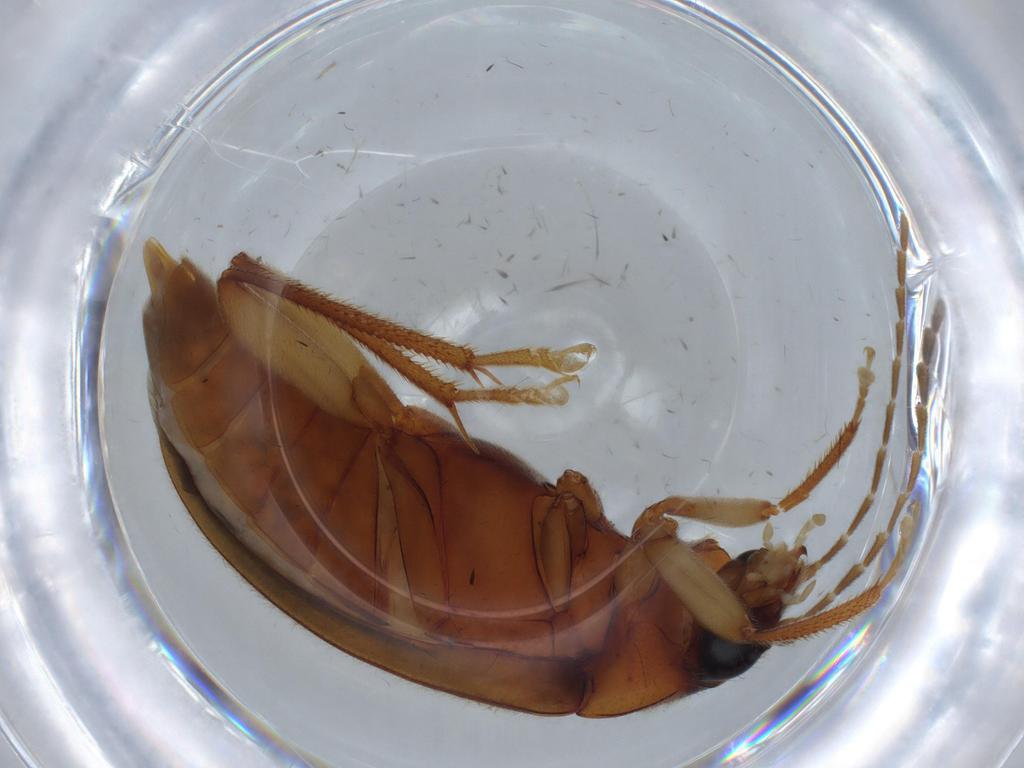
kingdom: Animalia
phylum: Arthropoda
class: Insecta
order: Coleoptera
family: Ptilodactylidae
